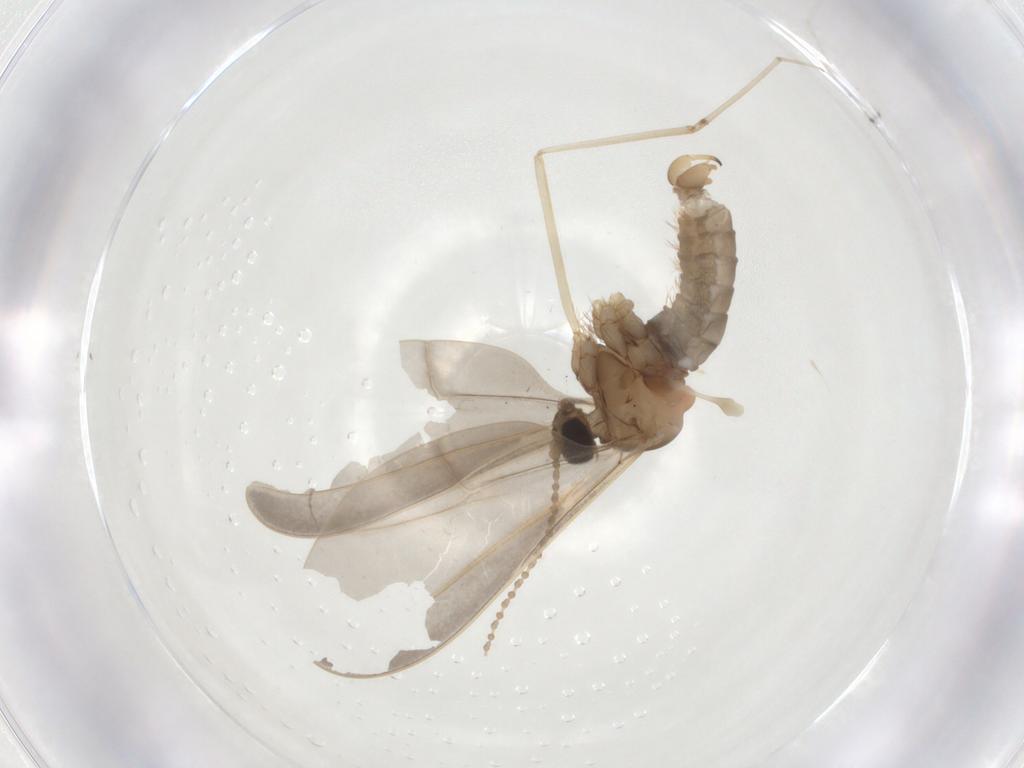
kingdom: Animalia
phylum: Arthropoda
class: Insecta
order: Diptera
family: Cecidomyiidae
